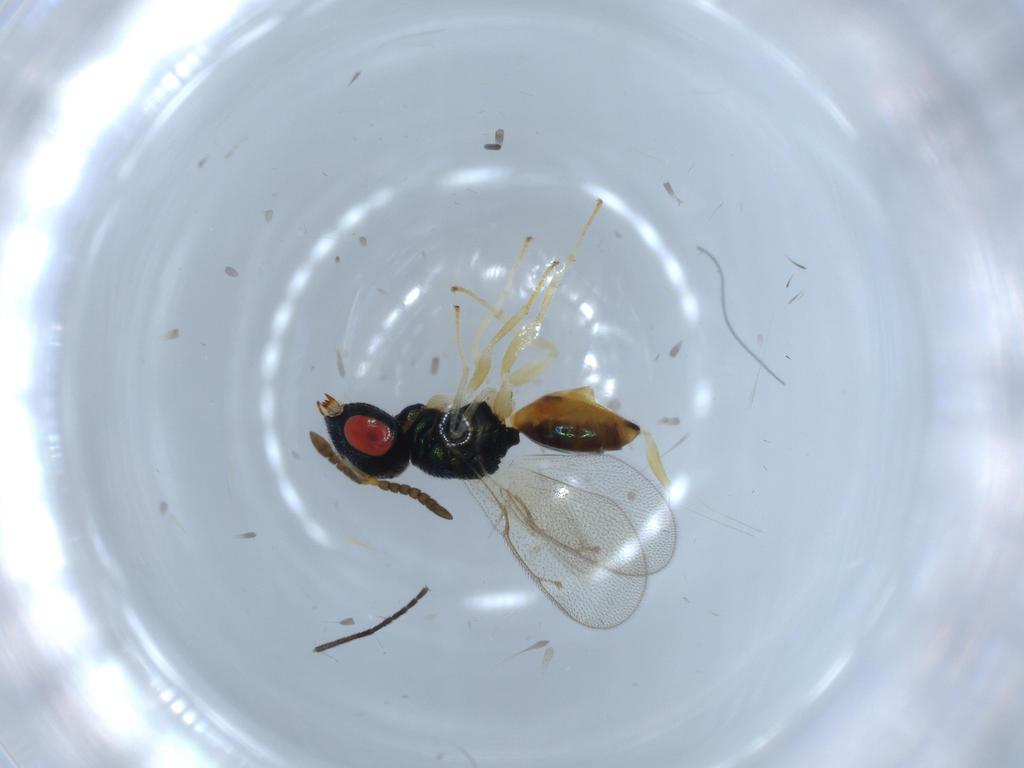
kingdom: Animalia
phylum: Arthropoda
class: Insecta
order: Hymenoptera
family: Pteromalidae
